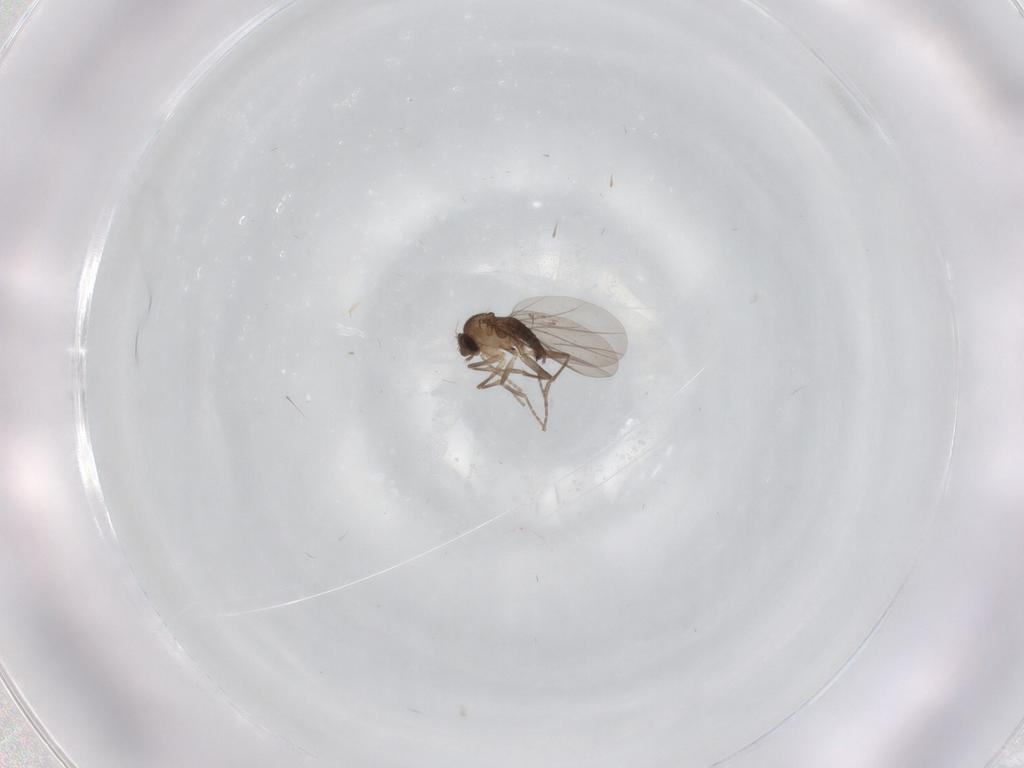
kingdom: Animalia
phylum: Arthropoda
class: Insecta
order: Diptera
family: Phoridae
